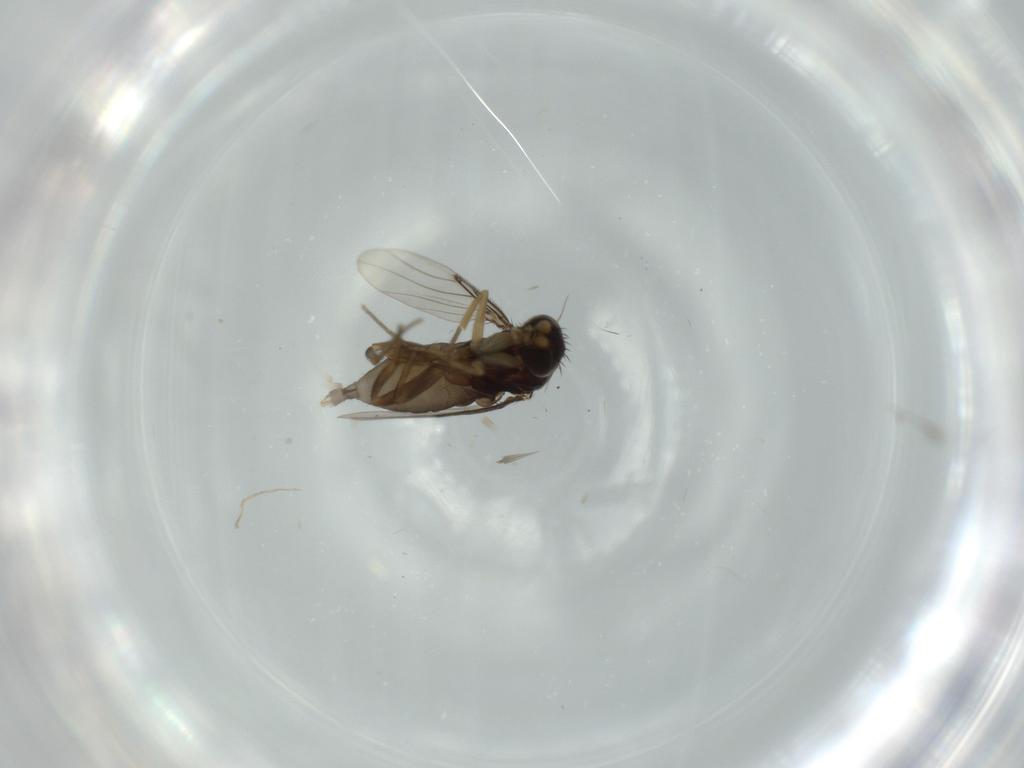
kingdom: Animalia
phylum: Arthropoda
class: Insecta
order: Diptera
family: Phoridae
